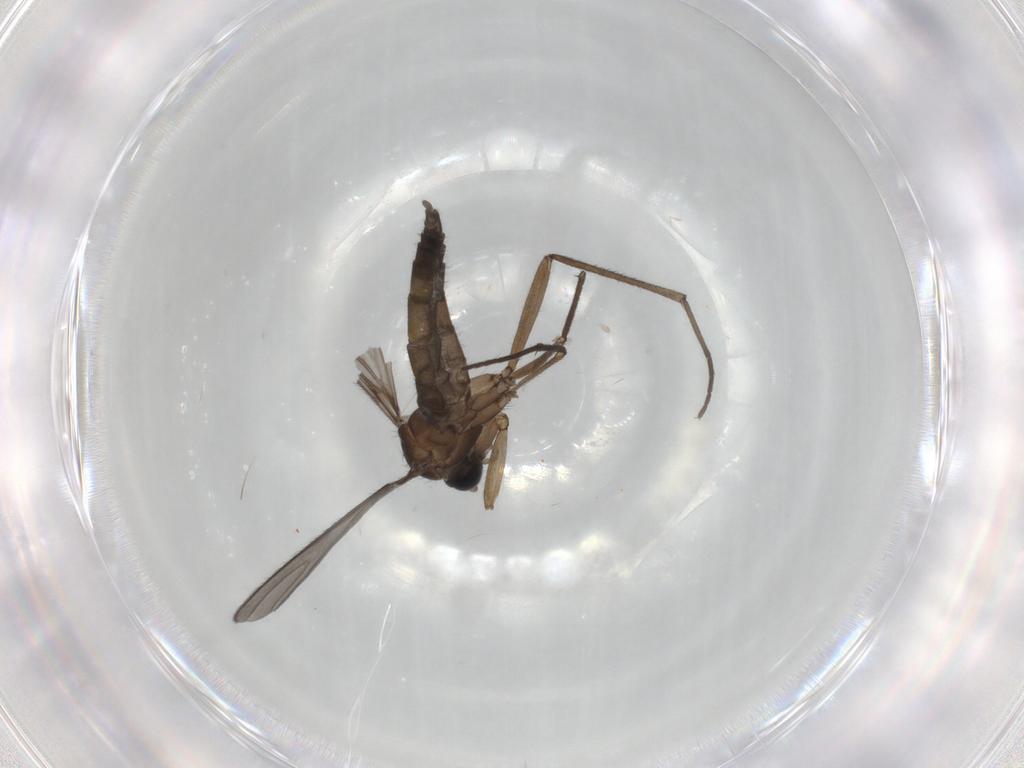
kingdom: Animalia
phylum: Arthropoda
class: Insecta
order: Diptera
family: Sciaridae
